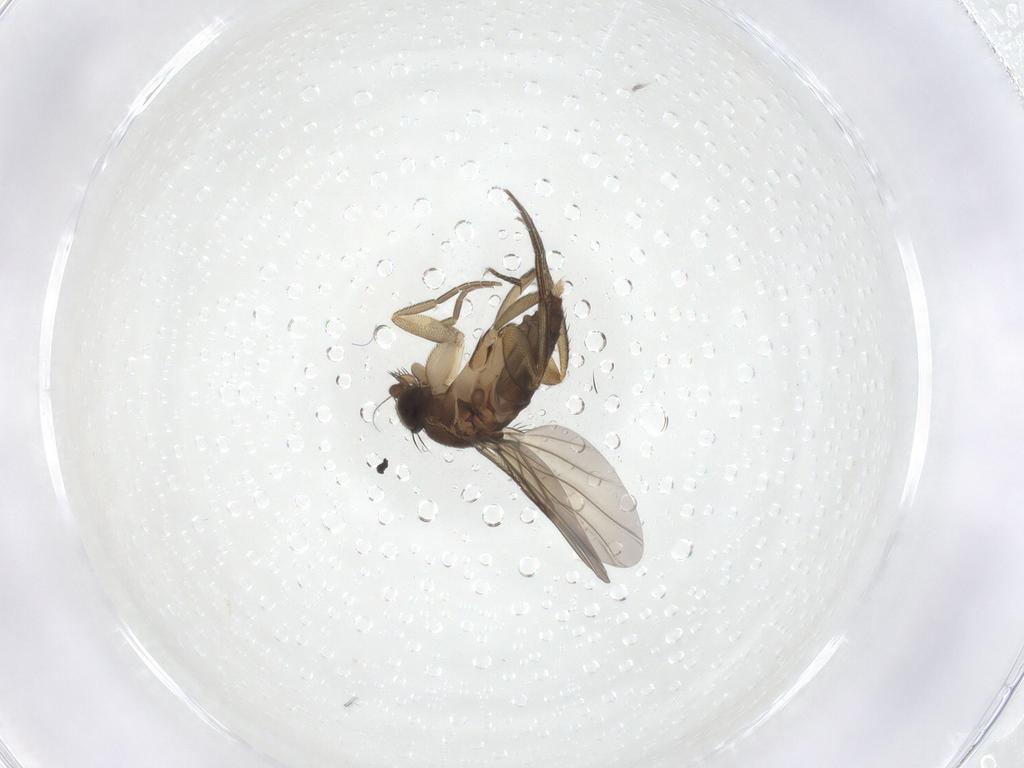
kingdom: Animalia
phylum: Arthropoda
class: Insecta
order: Diptera
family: Phoridae
